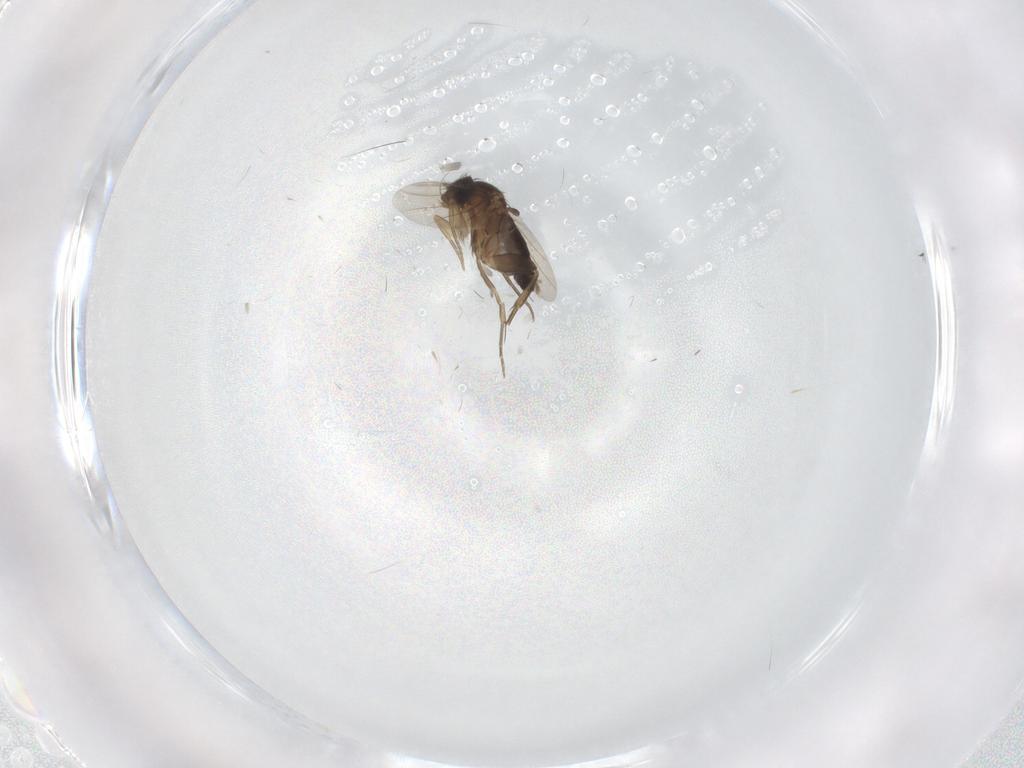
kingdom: Animalia
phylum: Arthropoda
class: Insecta
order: Diptera
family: Phoridae
